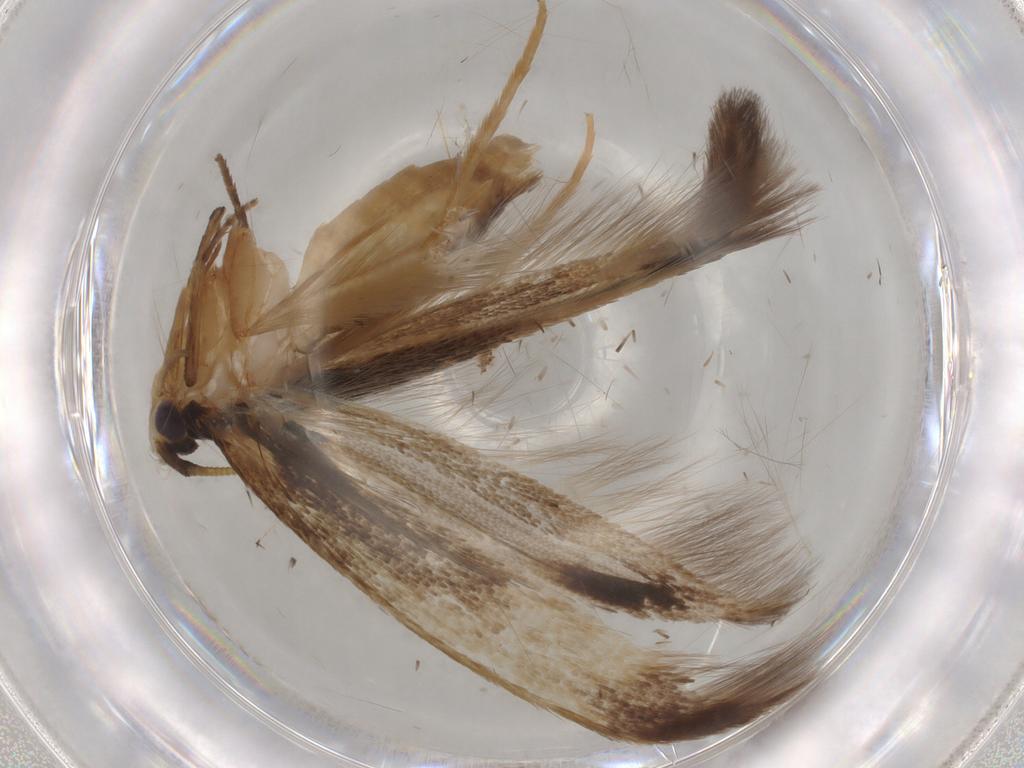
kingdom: Animalia
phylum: Arthropoda
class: Insecta
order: Lepidoptera
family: Tineidae
